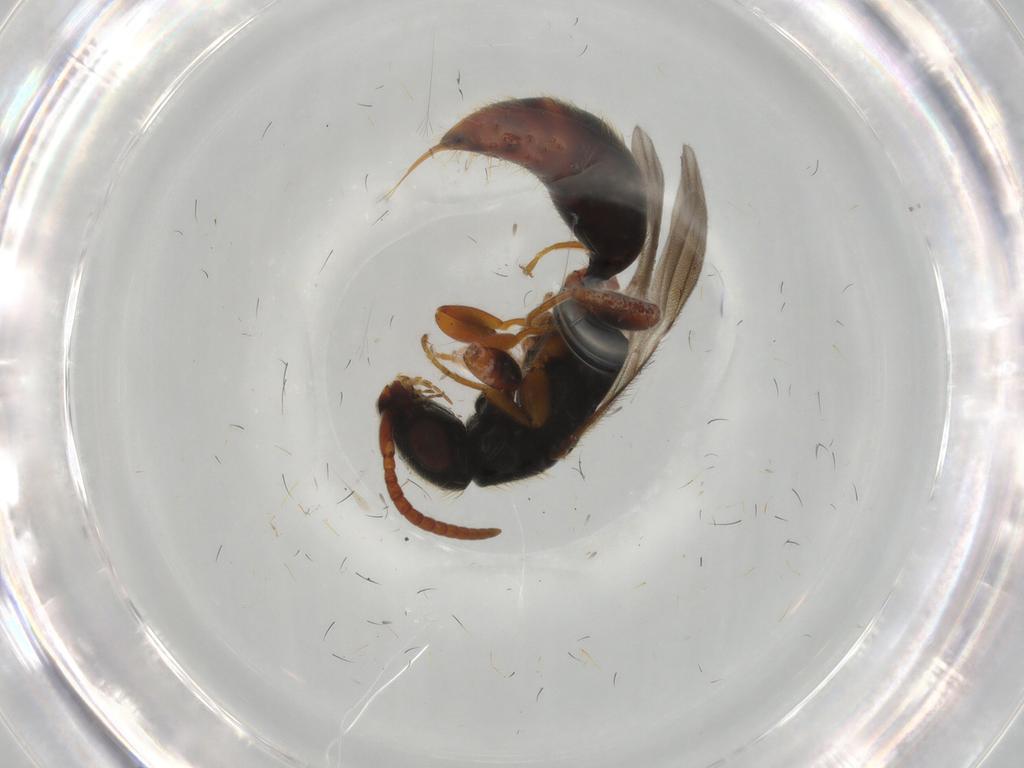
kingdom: Animalia
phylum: Arthropoda
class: Insecta
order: Hymenoptera
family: Bethylidae
